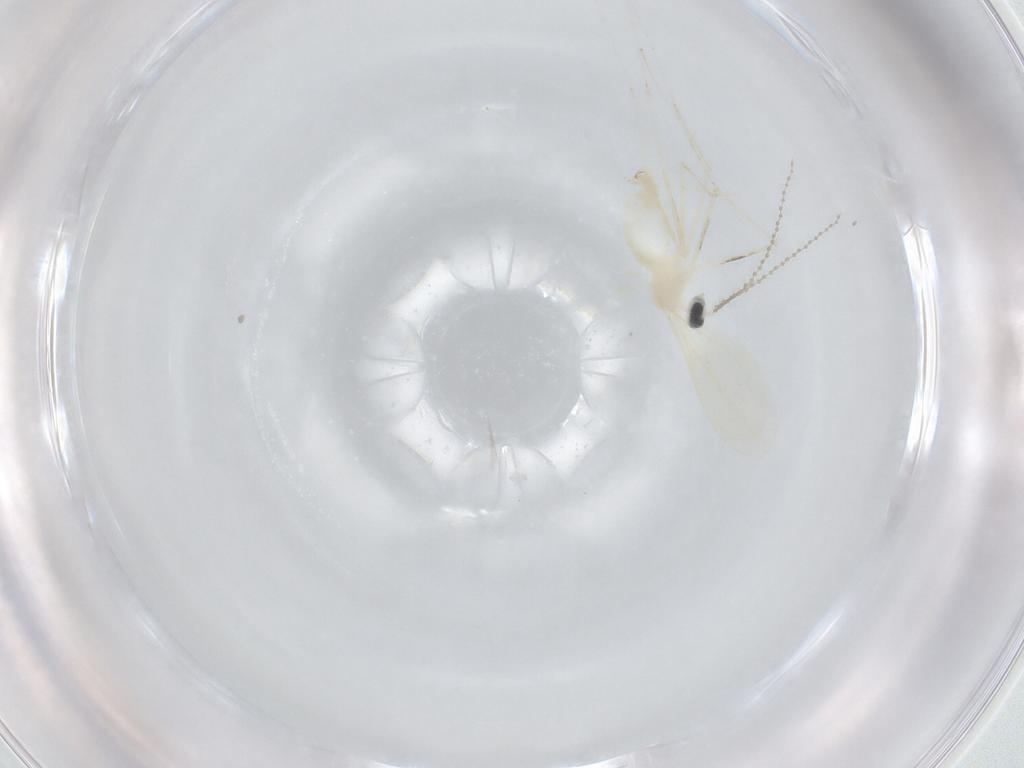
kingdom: Animalia
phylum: Arthropoda
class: Insecta
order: Diptera
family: Cecidomyiidae
